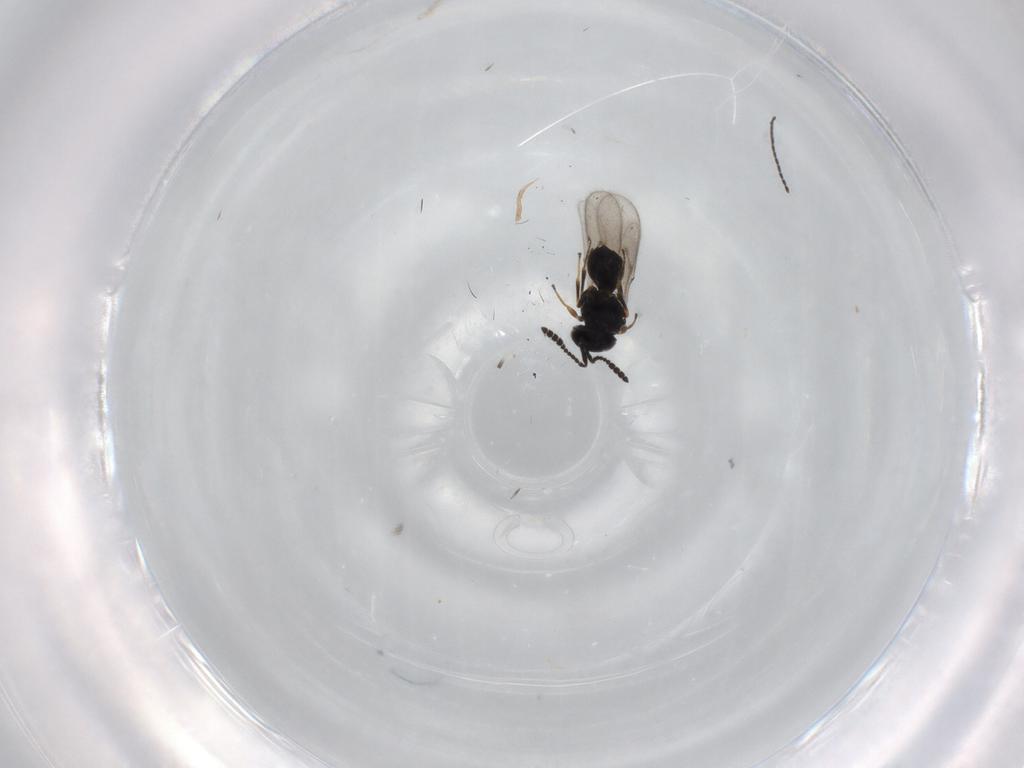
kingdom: Animalia
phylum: Arthropoda
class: Insecta
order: Hymenoptera
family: Scelionidae
